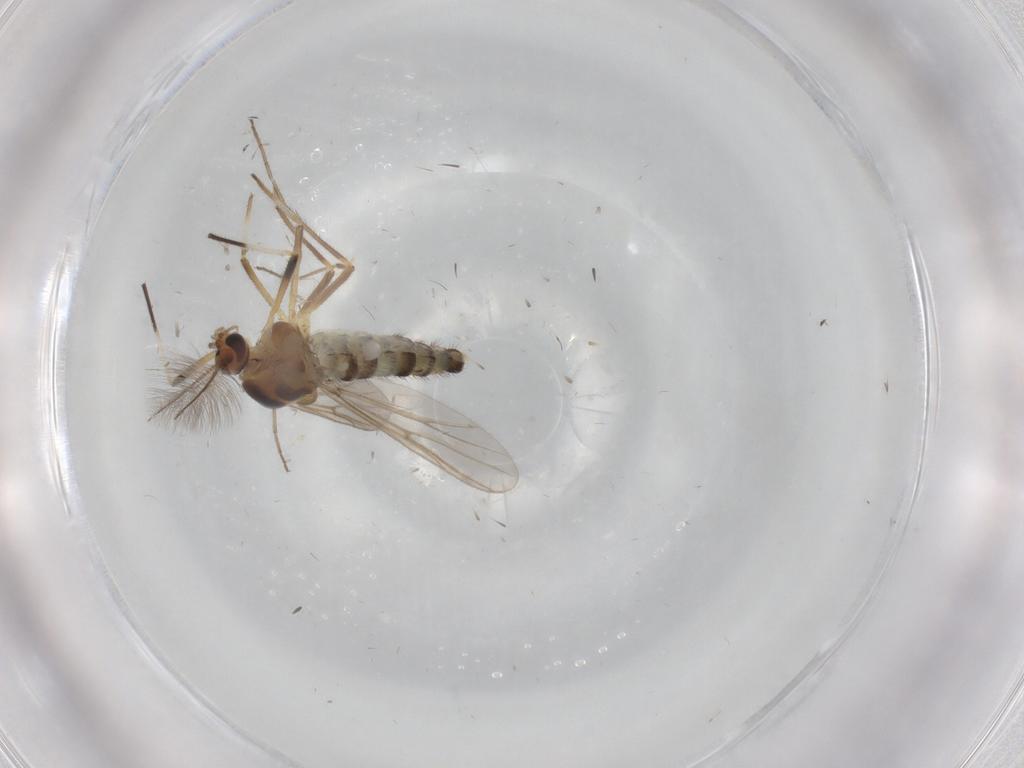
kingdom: Animalia
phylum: Arthropoda
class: Insecta
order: Diptera
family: Chironomidae
